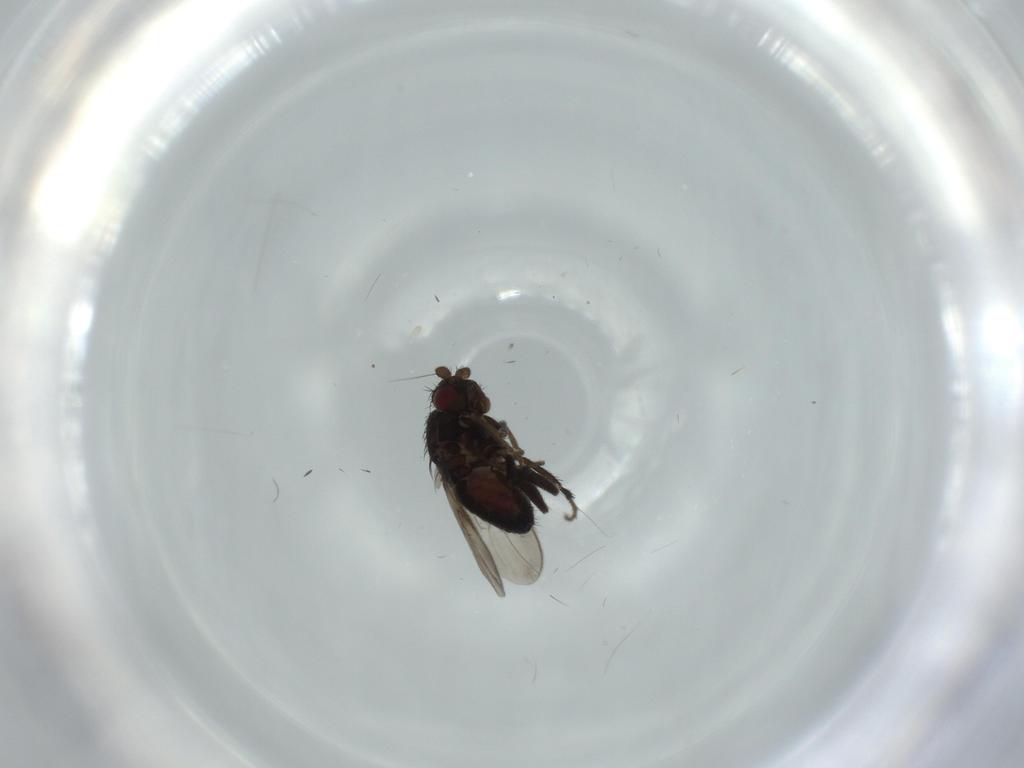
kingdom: Animalia
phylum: Arthropoda
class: Insecta
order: Diptera
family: Sphaeroceridae
